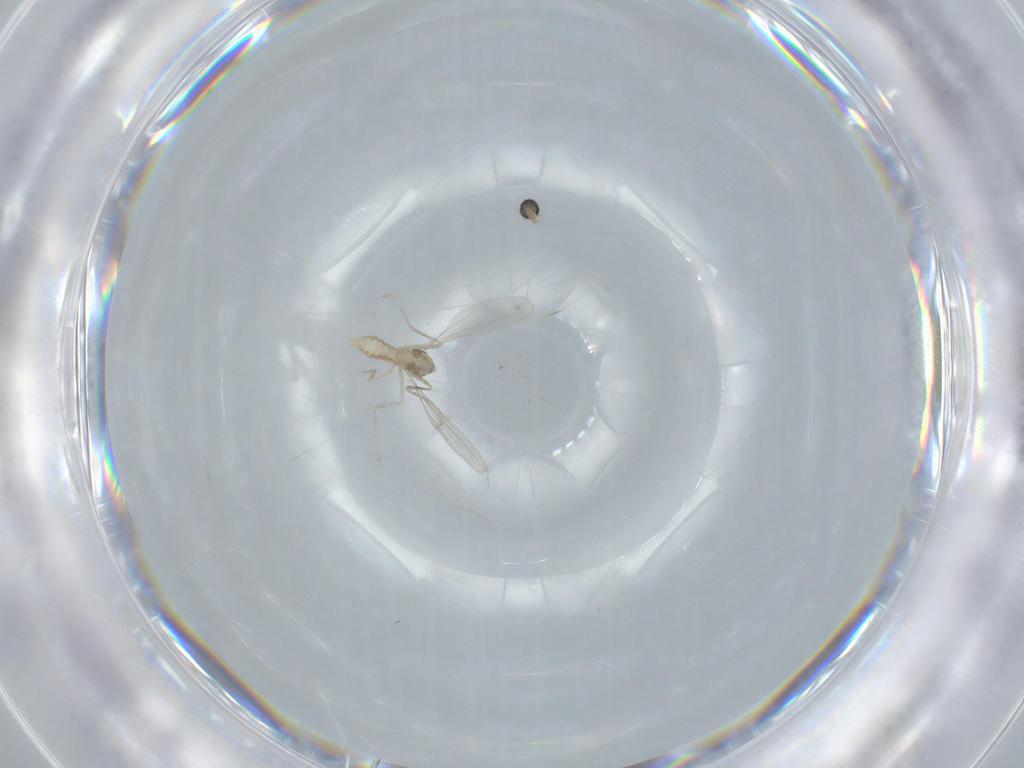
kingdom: Animalia
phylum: Arthropoda
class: Insecta
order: Diptera
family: Cecidomyiidae
